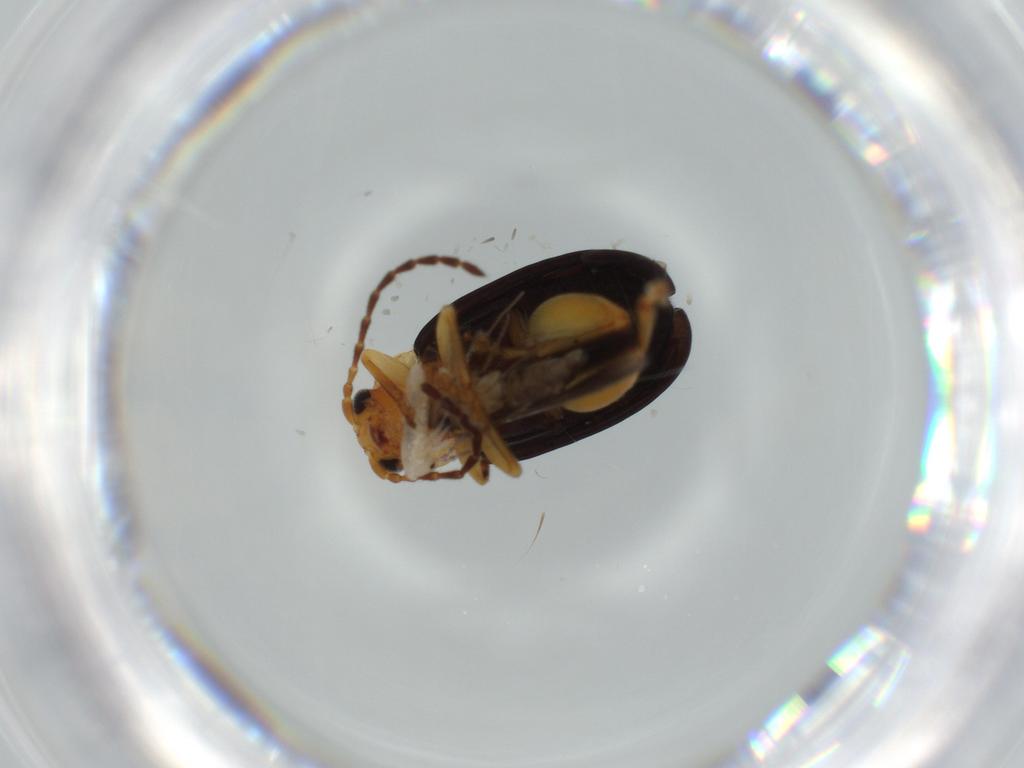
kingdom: Animalia
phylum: Arthropoda
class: Insecta
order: Coleoptera
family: Chrysomelidae
